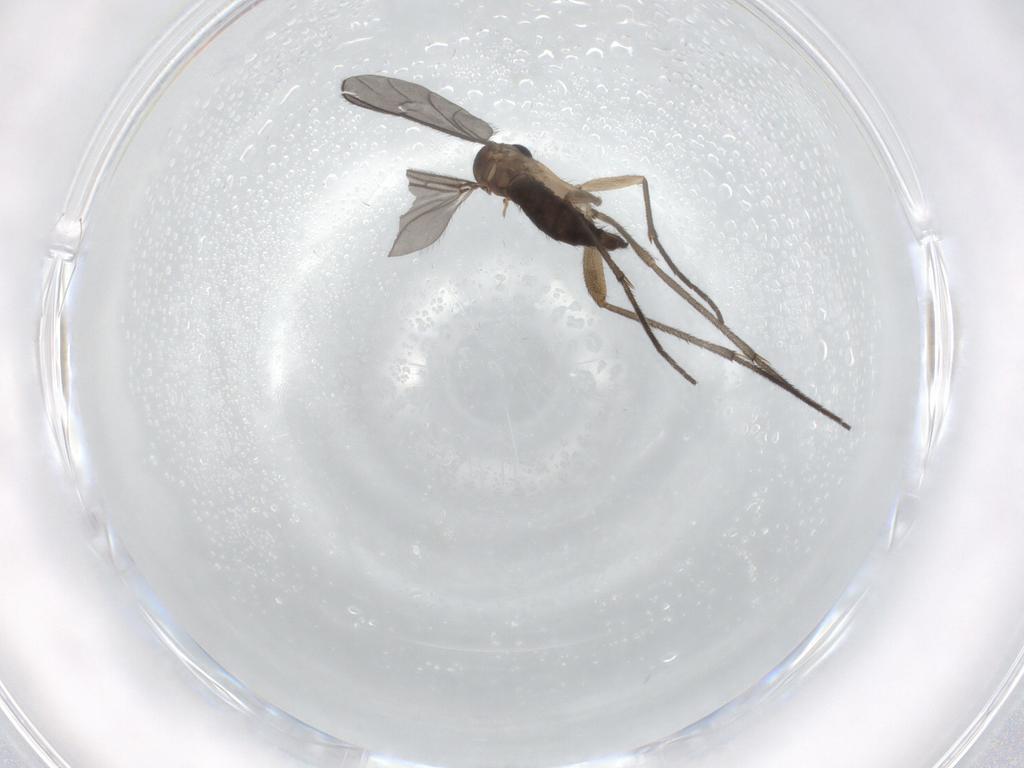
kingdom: Animalia
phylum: Arthropoda
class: Insecta
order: Diptera
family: Cecidomyiidae
